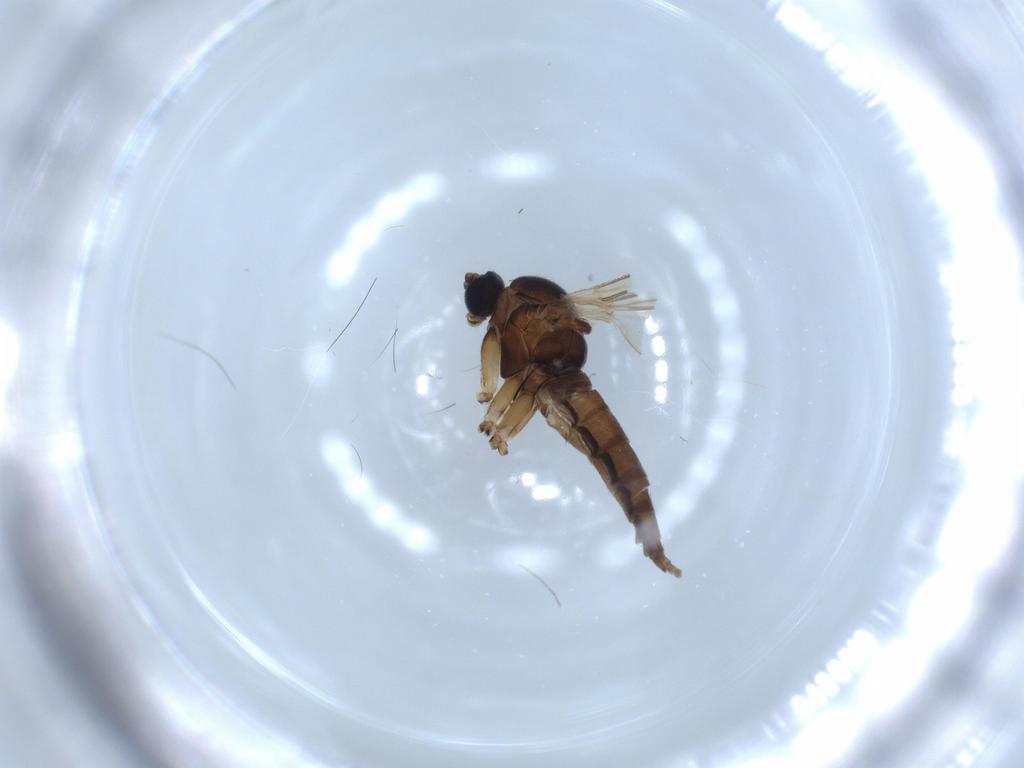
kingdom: Animalia
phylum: Arthropoda
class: Insecta
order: Diptera
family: Sciaridae
